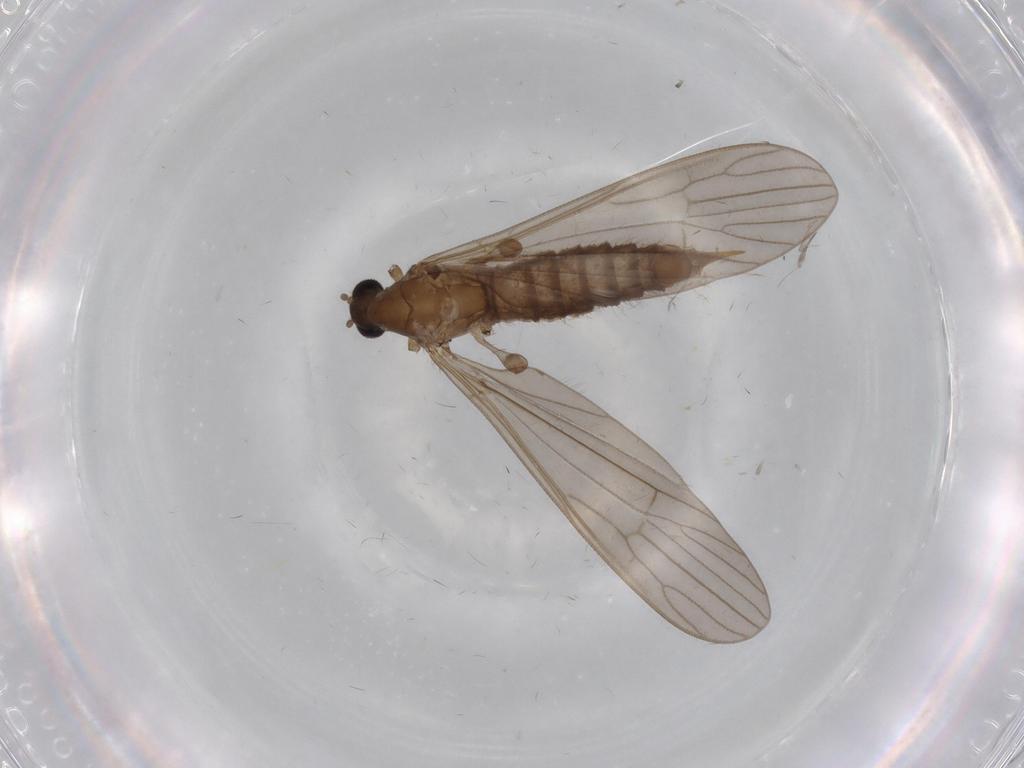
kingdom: Animalia
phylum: Arthropoda
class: Insecta
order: Diptera
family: Limoniidae
